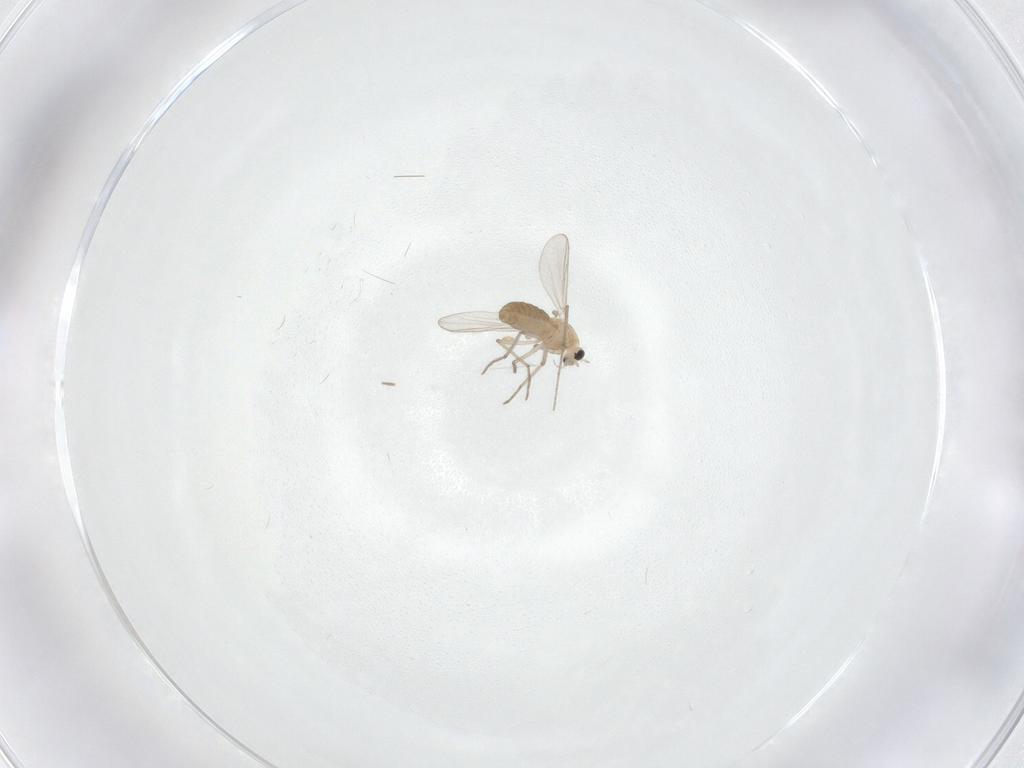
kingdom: Animalia
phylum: Arthropoda
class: Insecta
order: Diptera
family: Chironomidae
